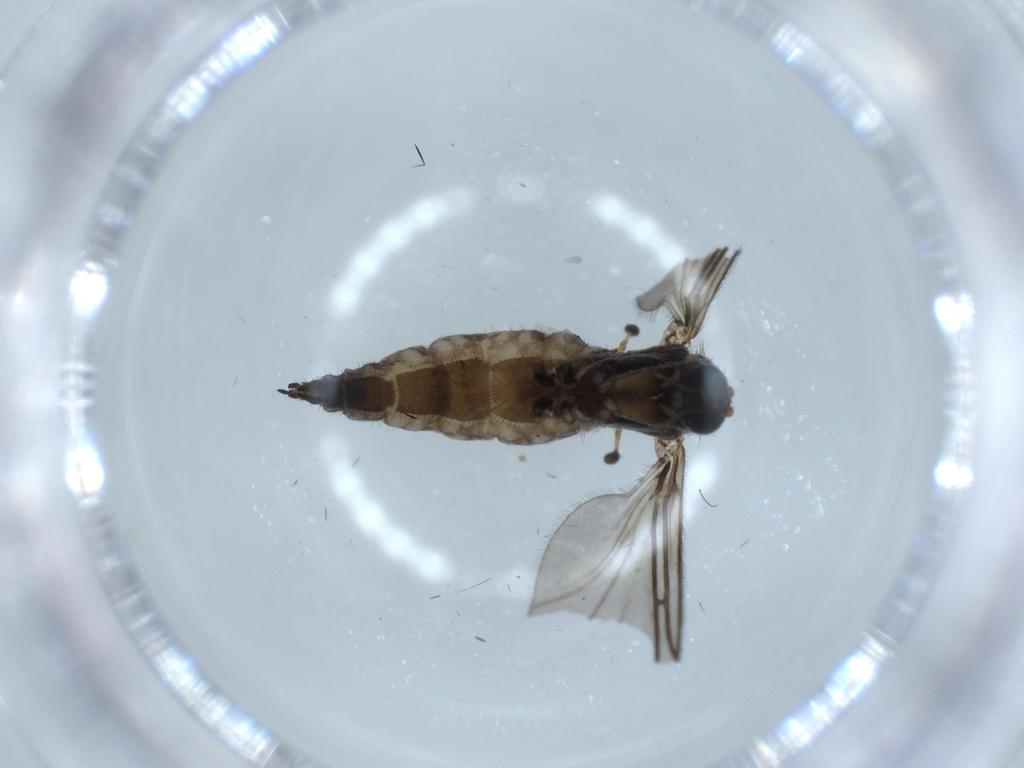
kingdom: Animalia
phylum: Arthropoda
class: Insecta
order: Diptera
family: Sciaridae
